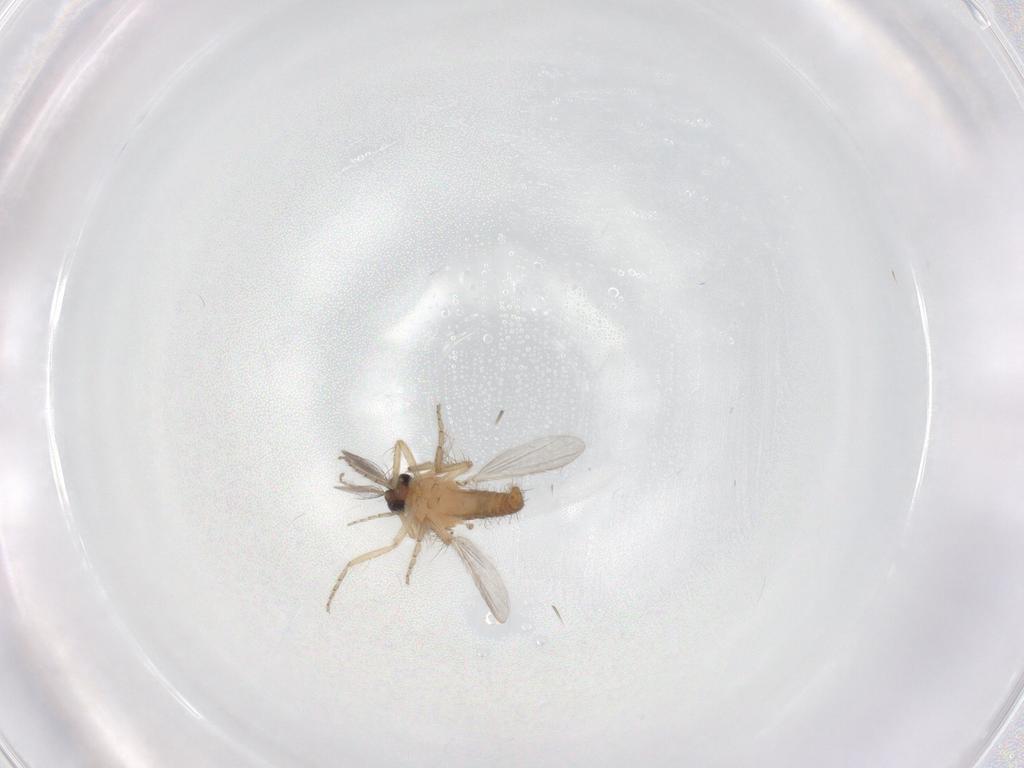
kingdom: Animalia
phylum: Arthropoda
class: Insecta
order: Diptera
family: Ceratopogonidae
